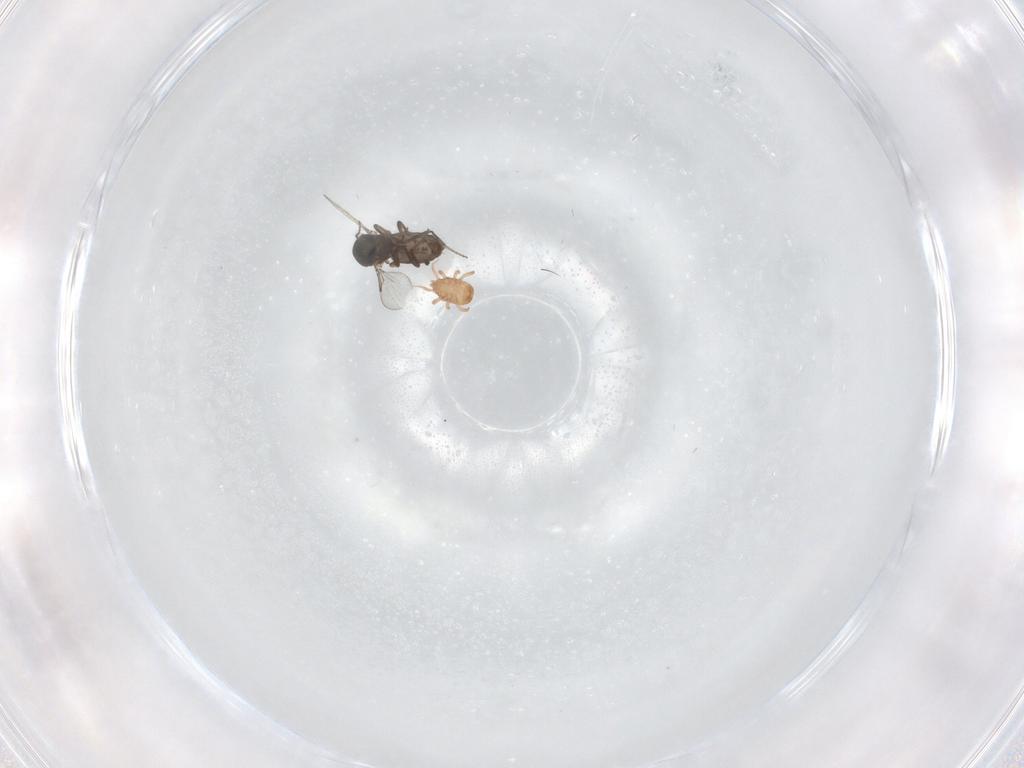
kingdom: Animalia
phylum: Arthropoda
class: Insecta
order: Diptera
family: Ceratopogonidae
